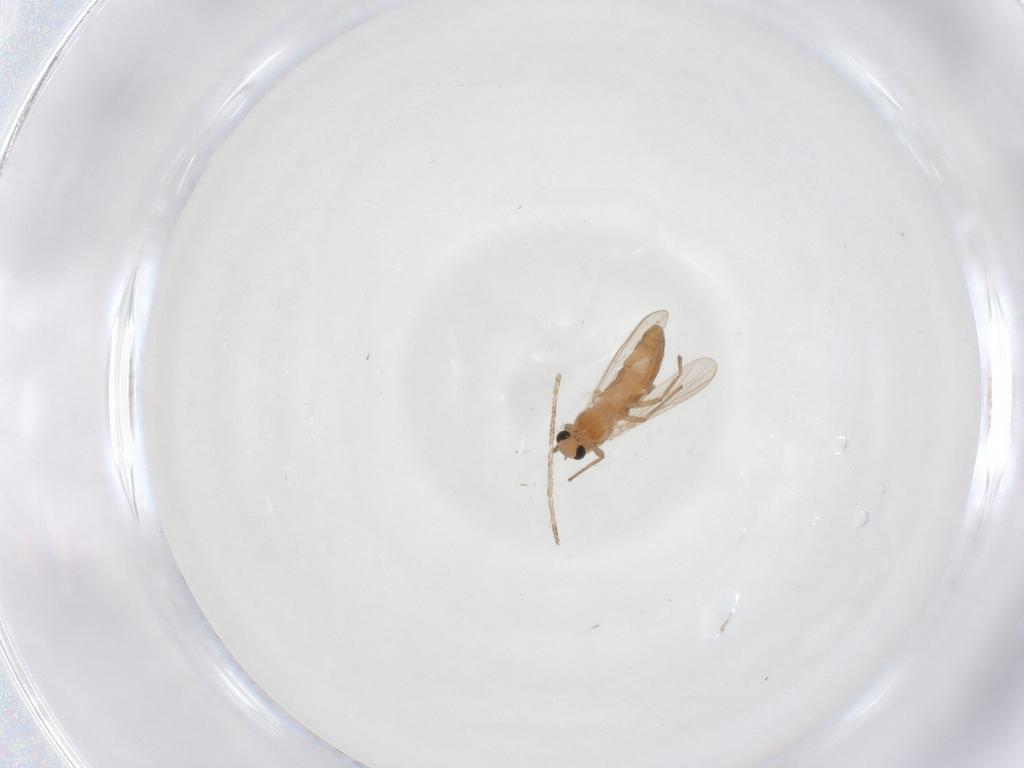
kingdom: Animalia
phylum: Arthropoda
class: Insecta
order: Diptera
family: Chironomidae
